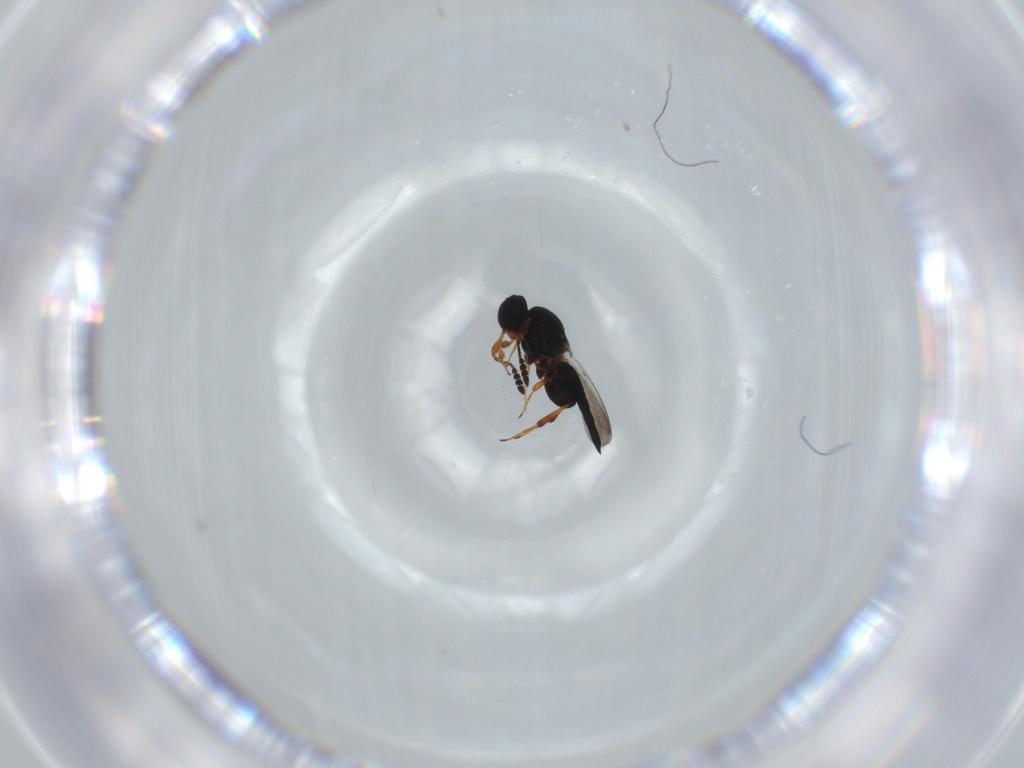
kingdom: Animalia
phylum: Arthropoda
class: Insecta
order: Hymenoptera
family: Platygastridae
